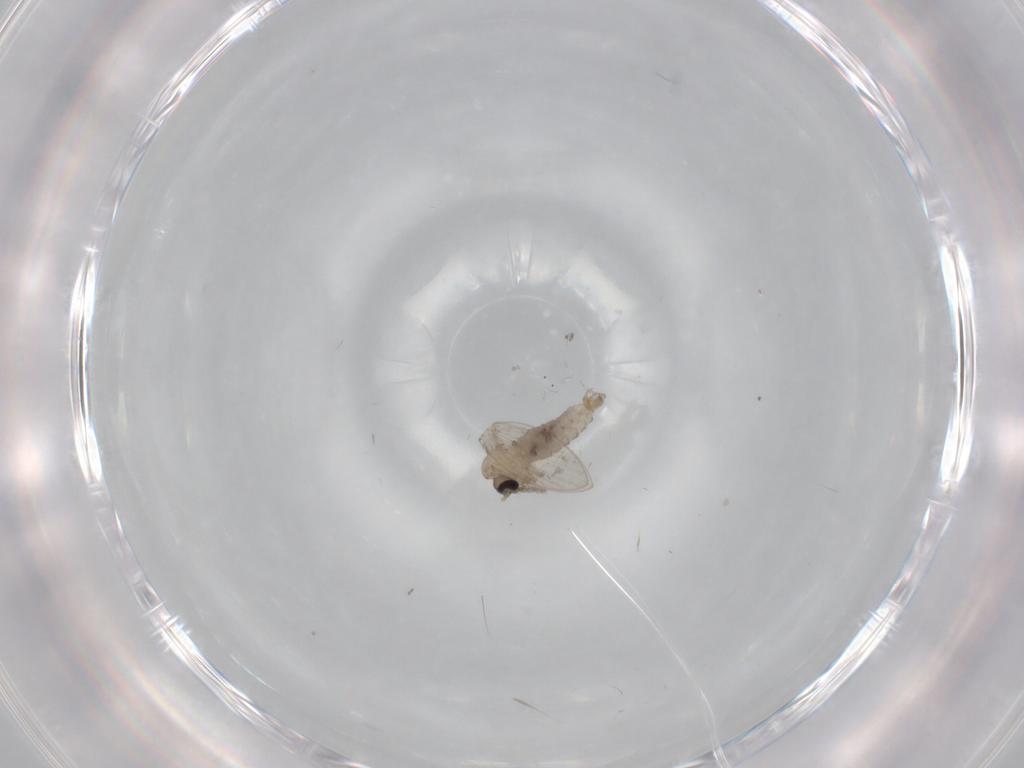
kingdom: Animalia
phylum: Arthropoda
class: Insecta
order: Diptera
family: Psychodidae
